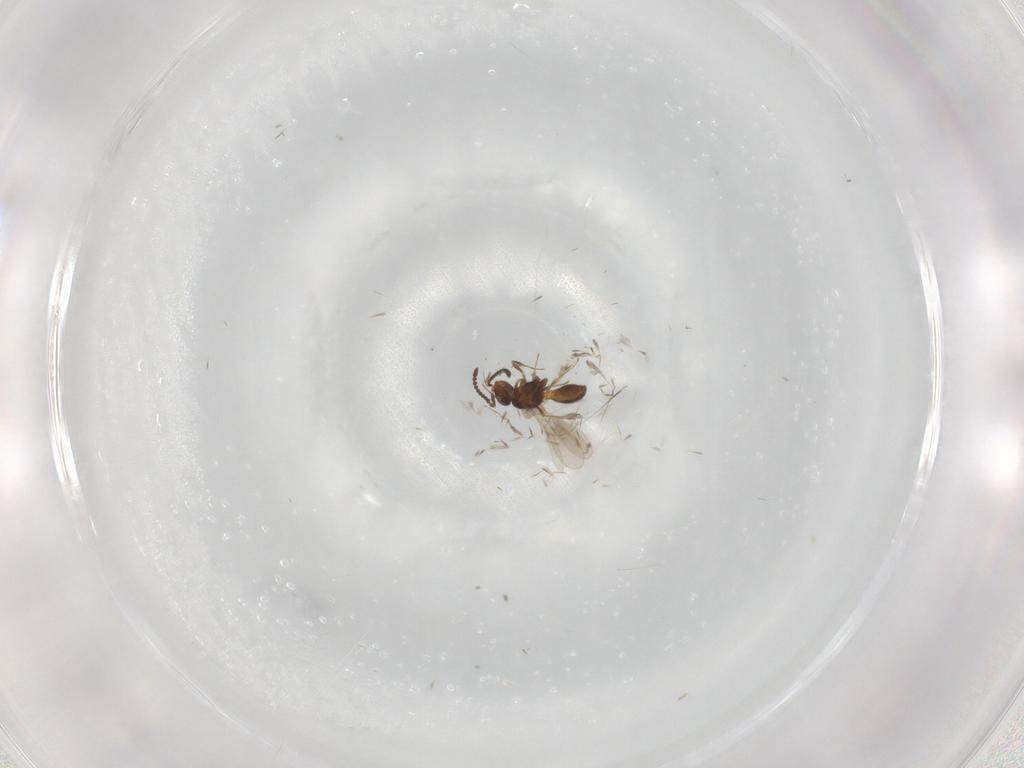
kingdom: Animalia
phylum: Arthropoda
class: Insecta
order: Hymenoptera
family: Scelionidae
